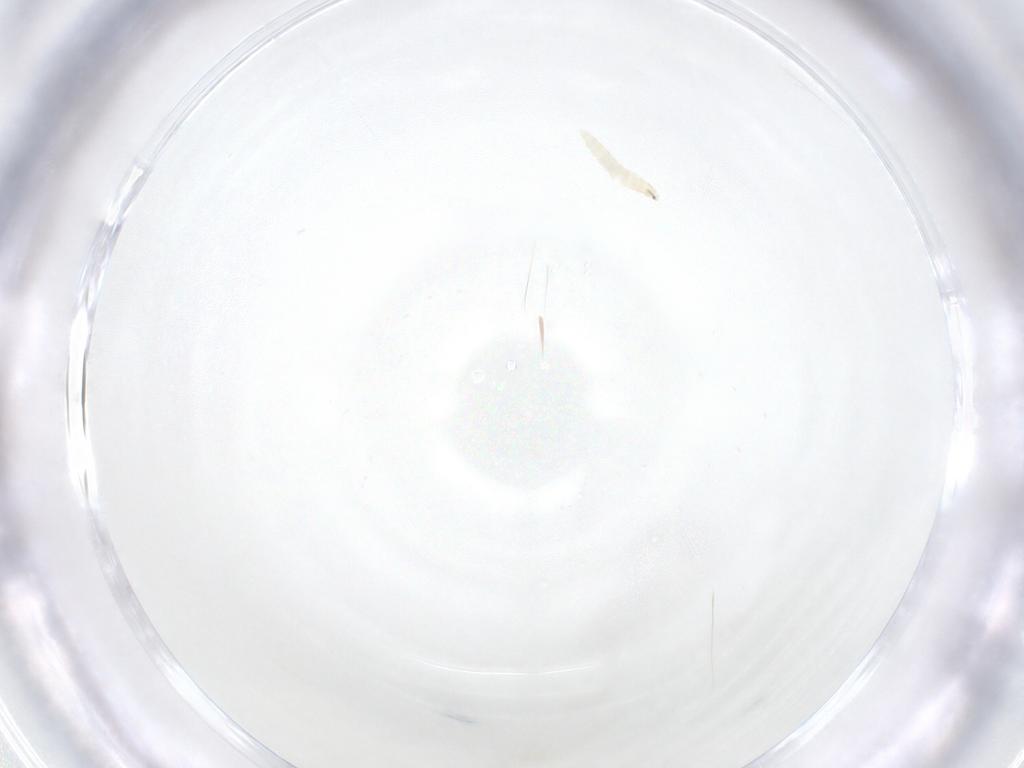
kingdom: Animalia
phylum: Arthropoda
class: Insecta
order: Diptera
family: Tachinidae
